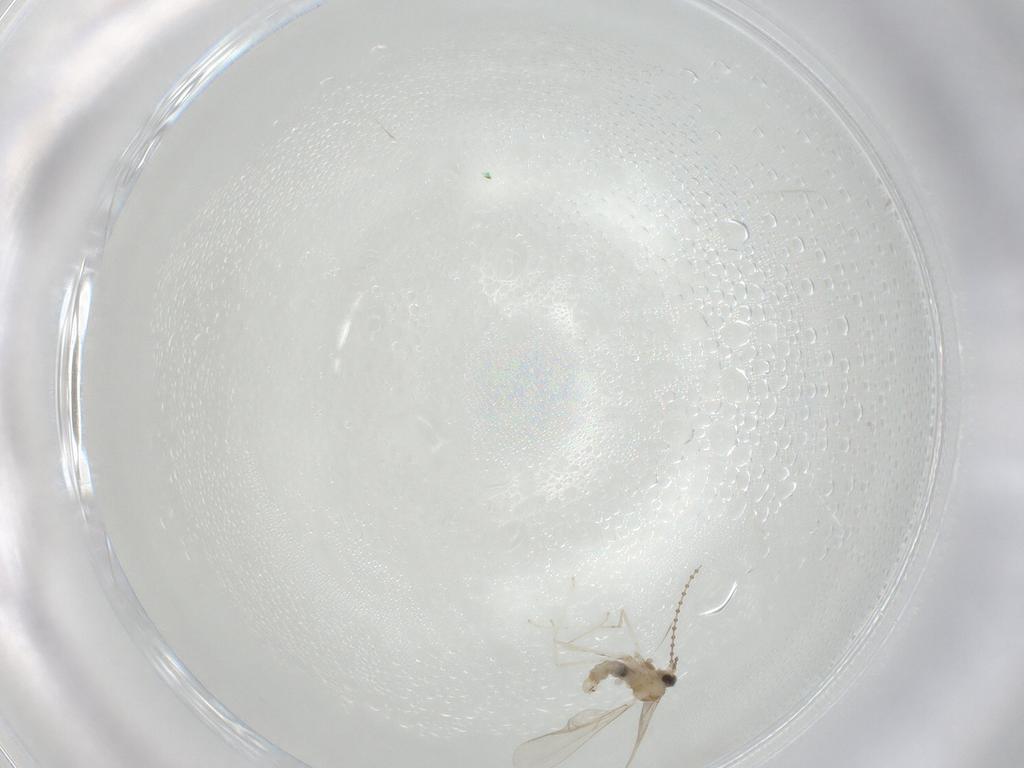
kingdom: Animalia
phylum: Arthropoda
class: Insecta
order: Diptera
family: Cecidomyiidae
